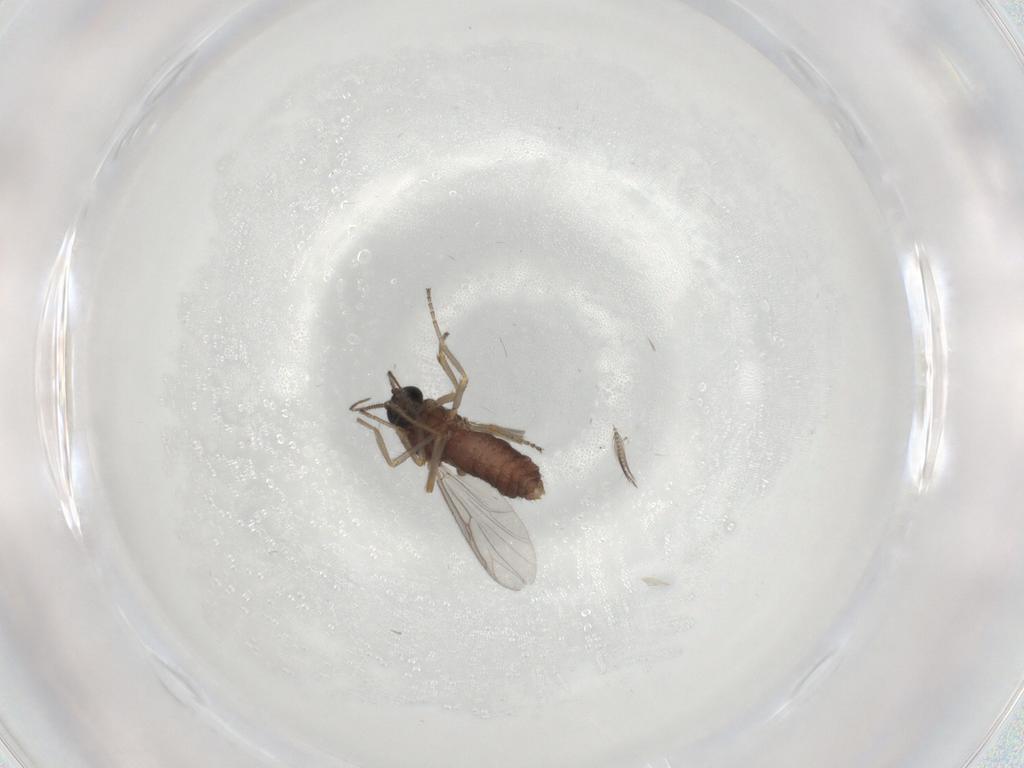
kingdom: Animalia
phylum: Arthropoda
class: Insecta
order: Diptera
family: Ceratopogonidae
